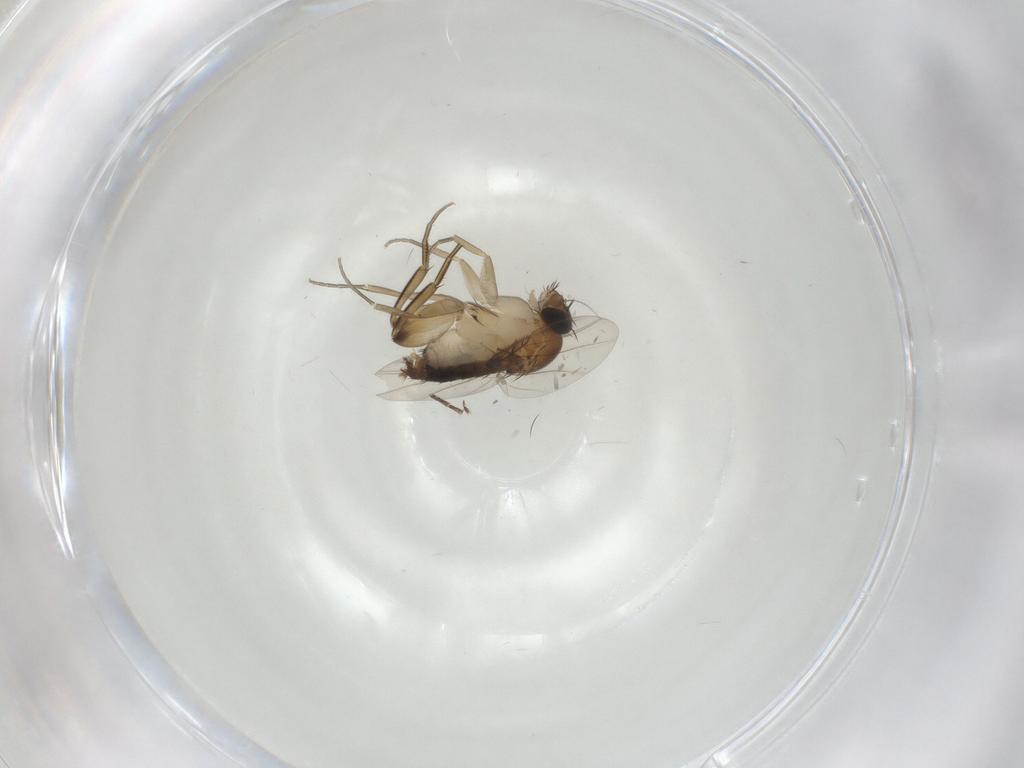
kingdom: Animalia
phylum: Arthropoda
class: Insecta
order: Diptera
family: Phoridae
